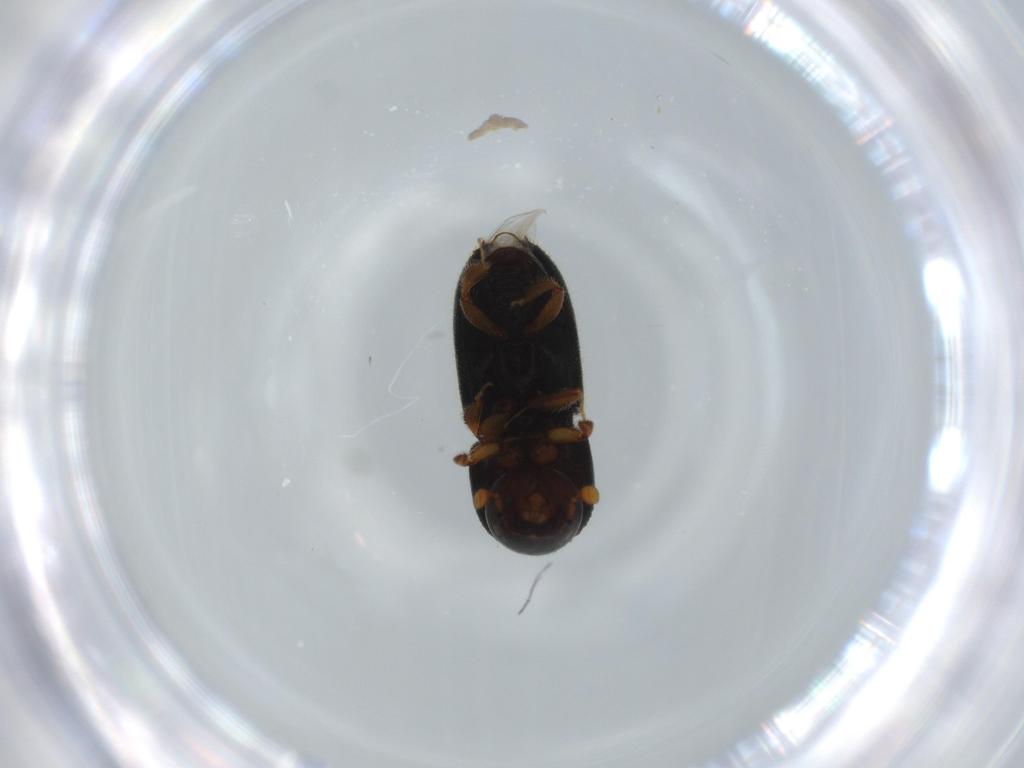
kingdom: Animalia
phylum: Arthropoda
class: Insecta
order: Coleoptera
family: Curculionidae
